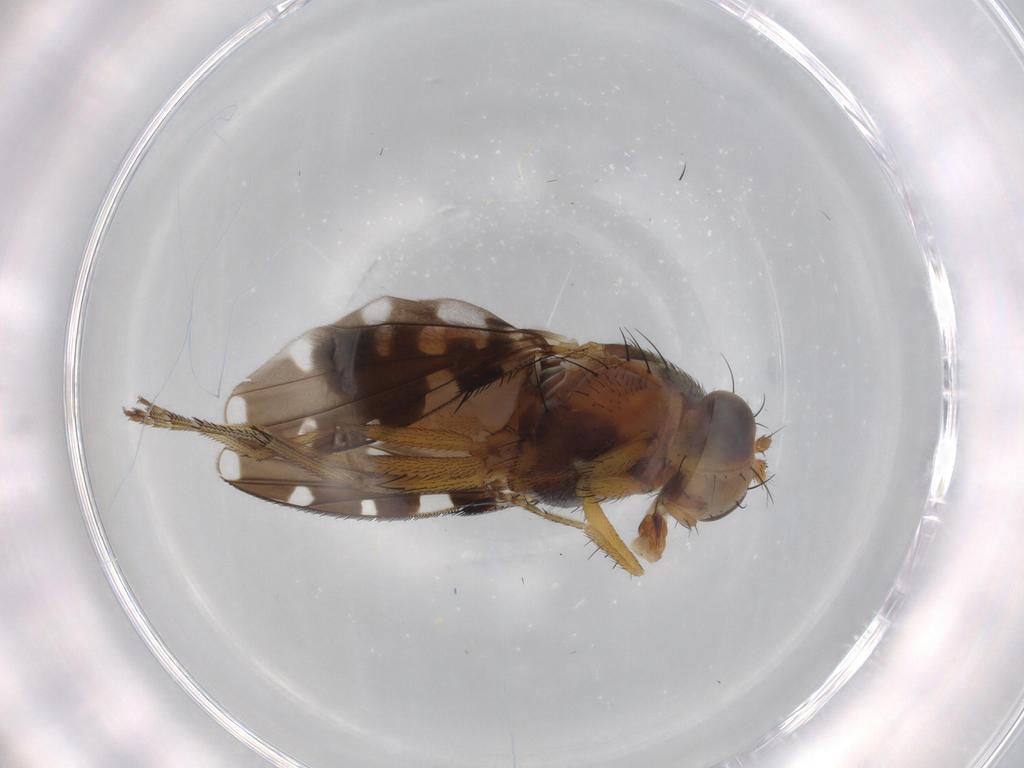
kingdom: Animalia
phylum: Arthropoda
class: Insecta
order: Diptera
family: Ephydridae
